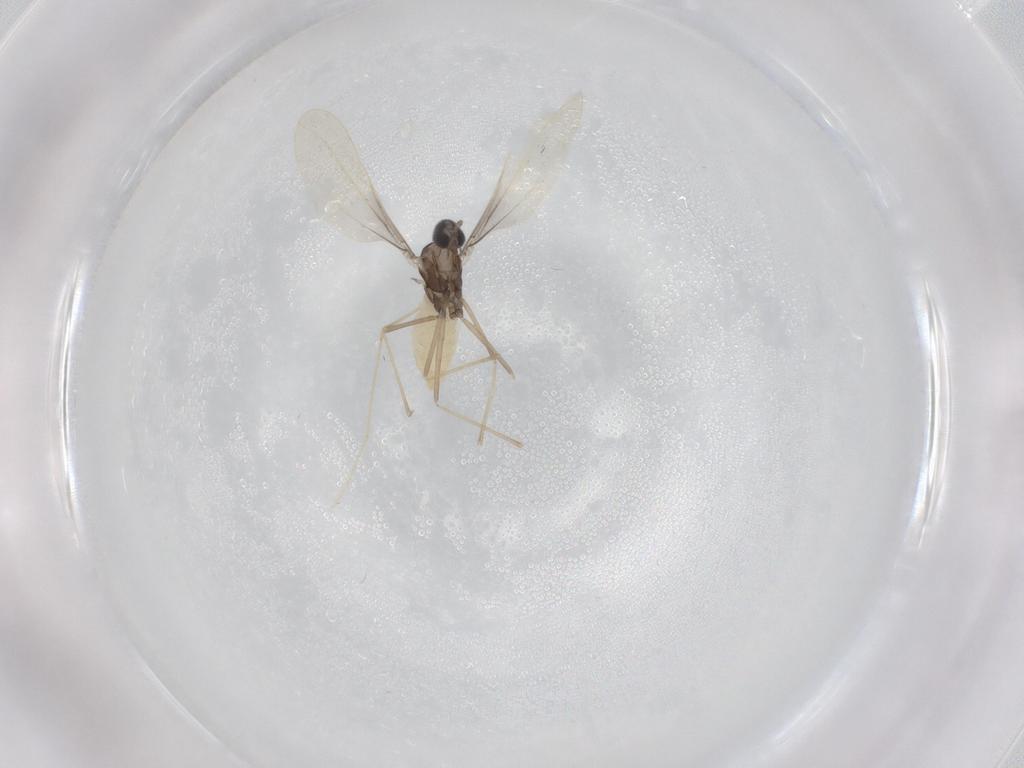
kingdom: Animalia
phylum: Arthropoda
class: Insecta
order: Diptera
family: Cecidomyiidae
